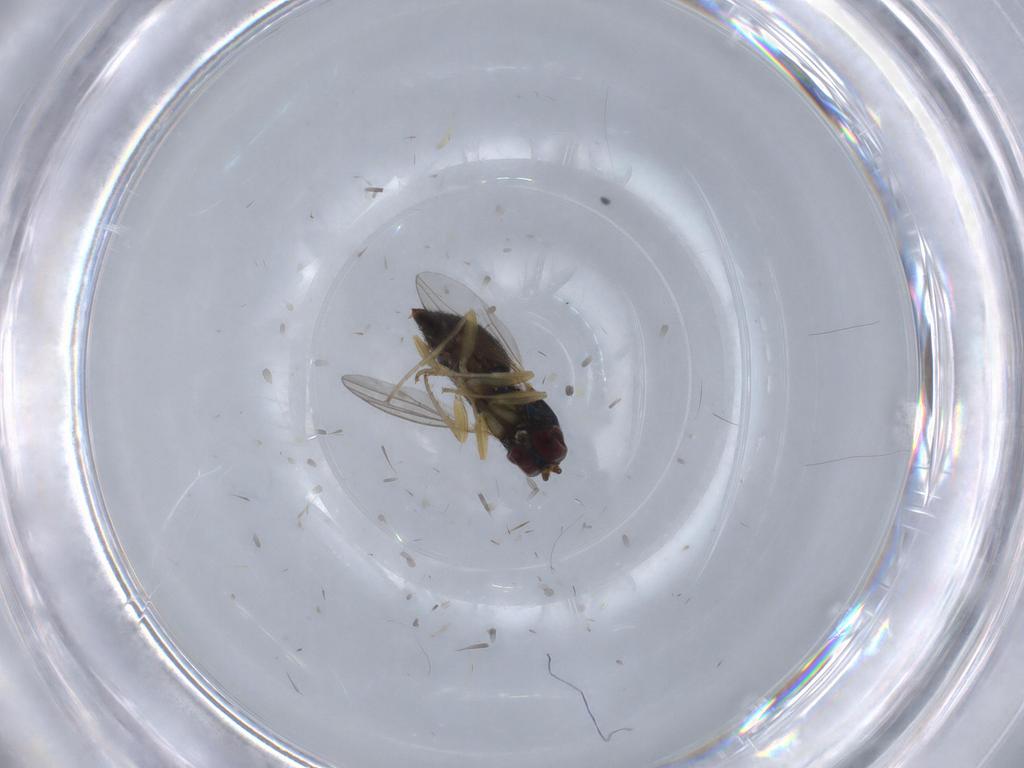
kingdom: Animalia
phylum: Arthropoda
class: Insecta
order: Diptera
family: Dolichopodidae
